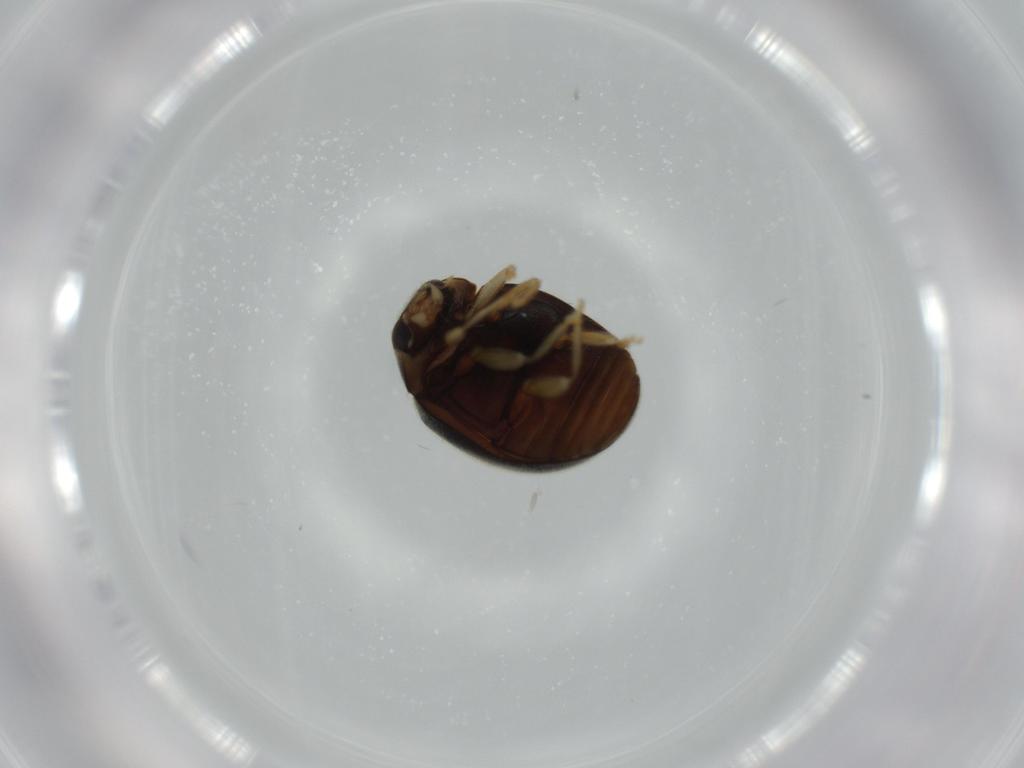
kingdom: Animalia
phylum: Arthropoda
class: Insecta
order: Coleoptera
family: Coccinellidae
